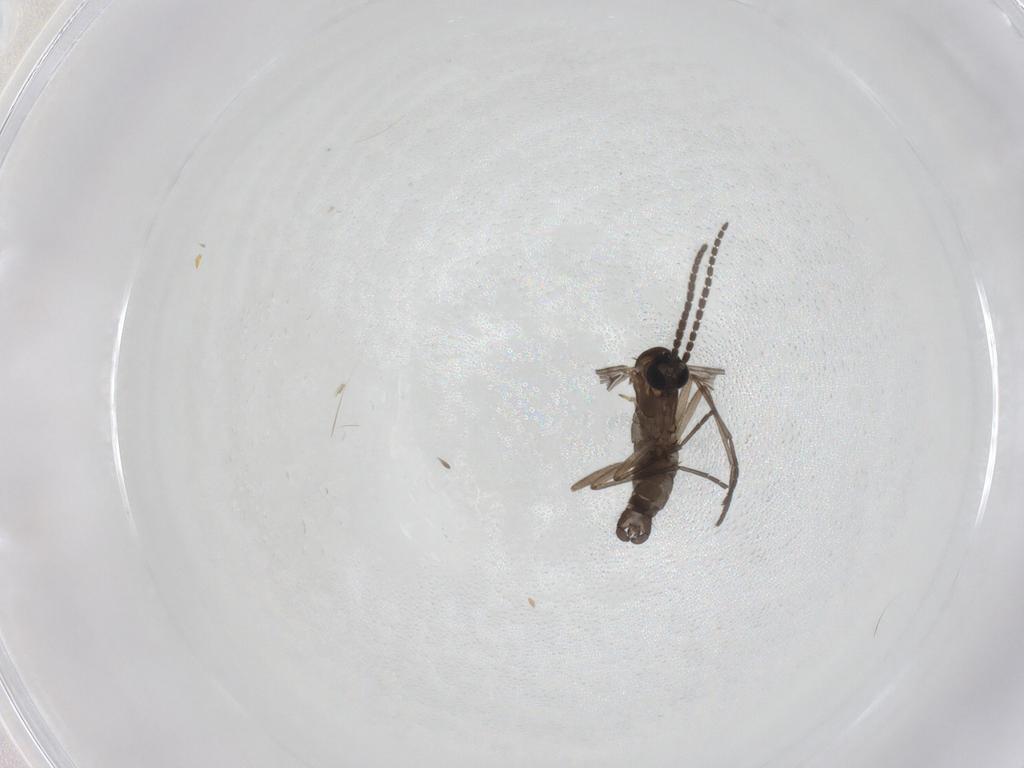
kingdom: Animalia
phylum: Arthropoda
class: Insecta
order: Diptera
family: Sciaridae
